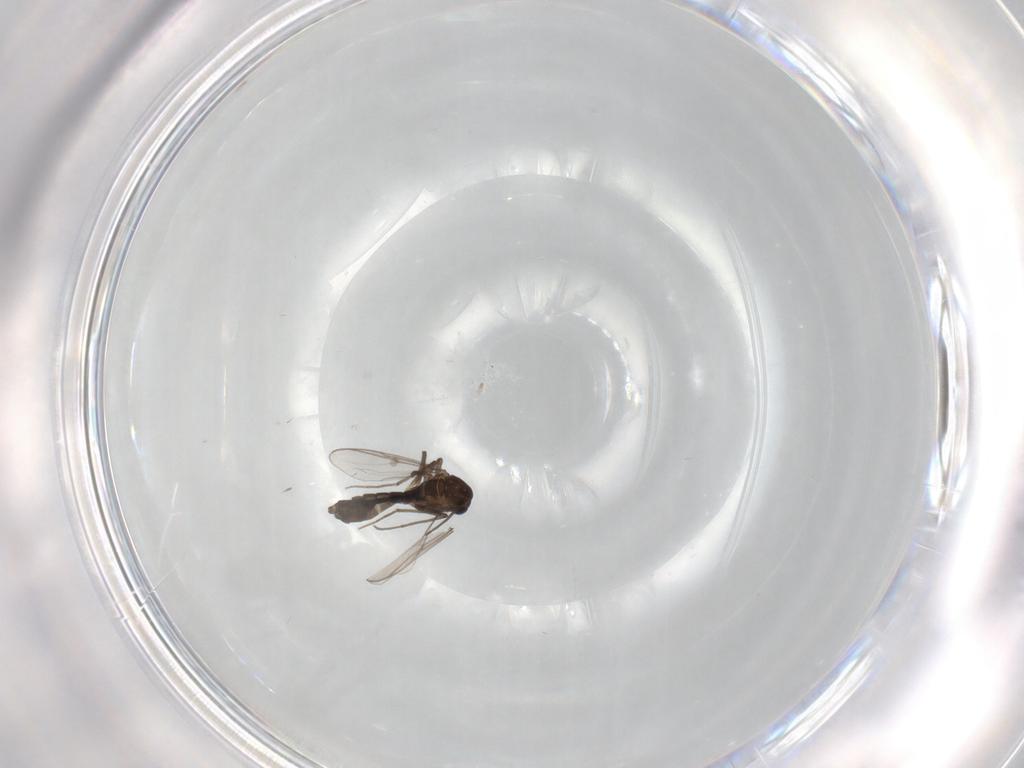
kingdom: Animalia
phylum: Arthropoda
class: Insecta
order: Diptera
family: Chironomidae
